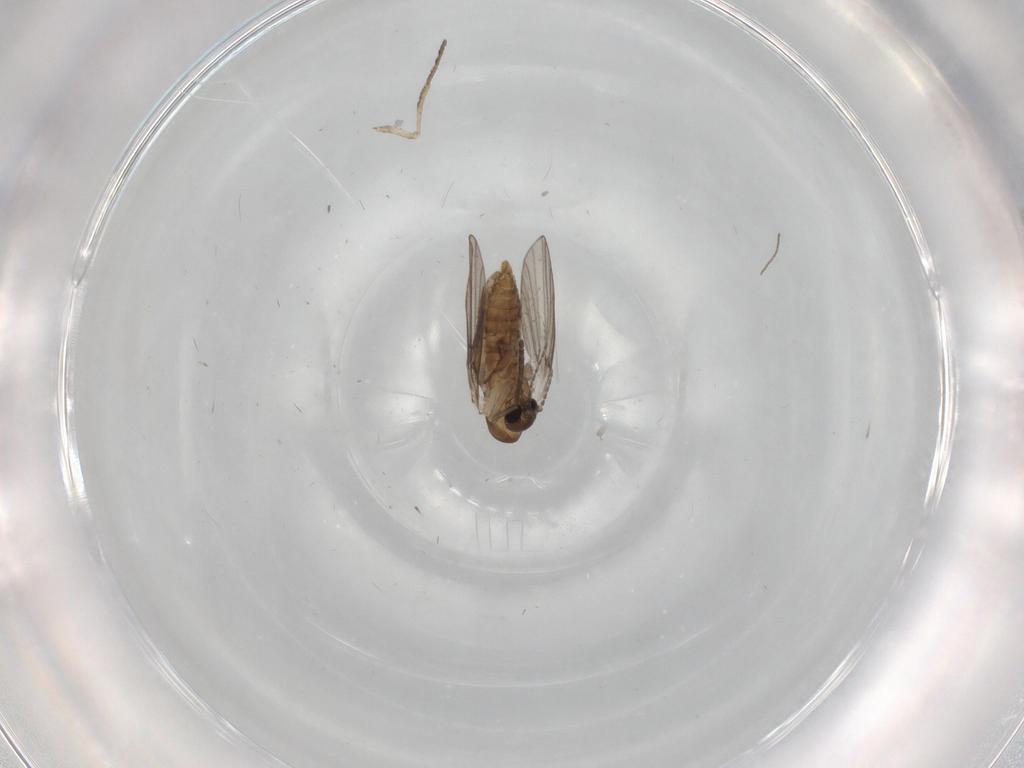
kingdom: Animalia
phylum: Arthropoda
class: Insecta
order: Diptera
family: Cecidomyiidae
